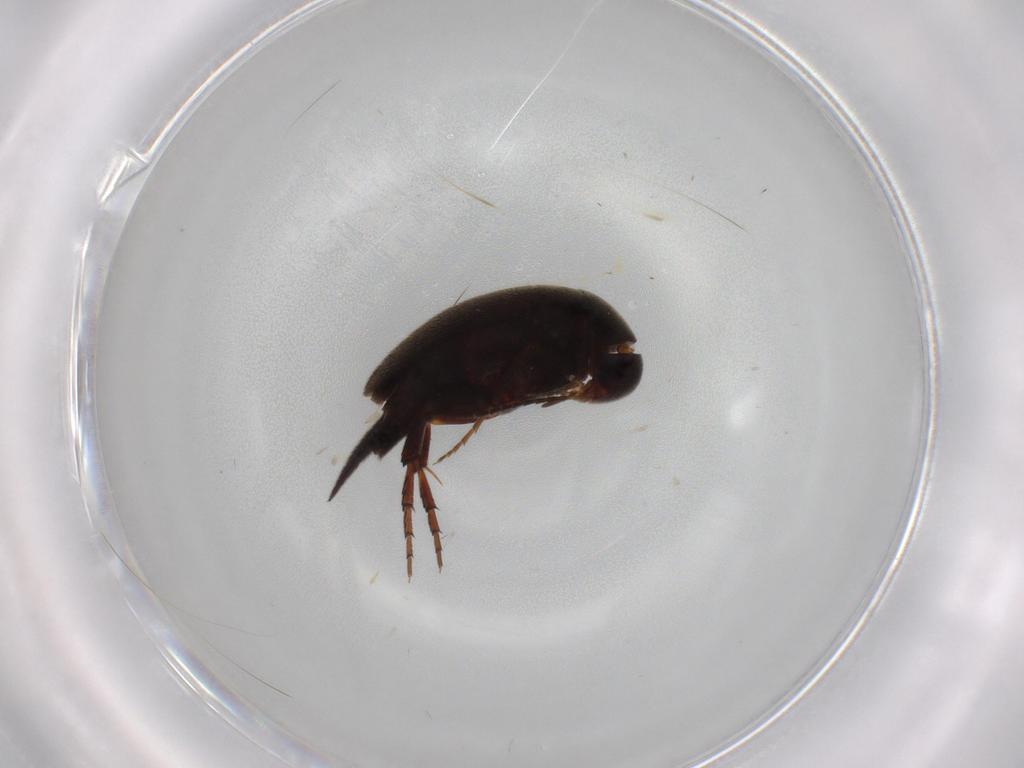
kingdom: Animalia
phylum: Arthropoda
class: Insecta
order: Coleoptera
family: Mordellidae
